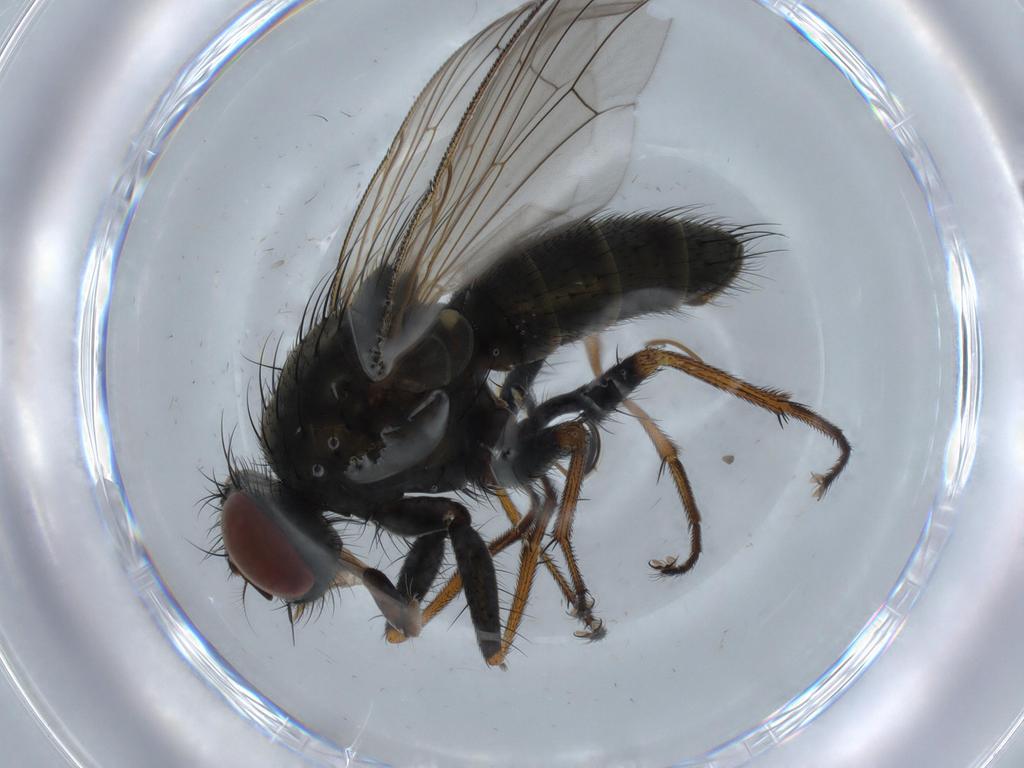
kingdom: Animalia
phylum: Arthropoda
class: Insecta
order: Diptera
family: Muscidae
